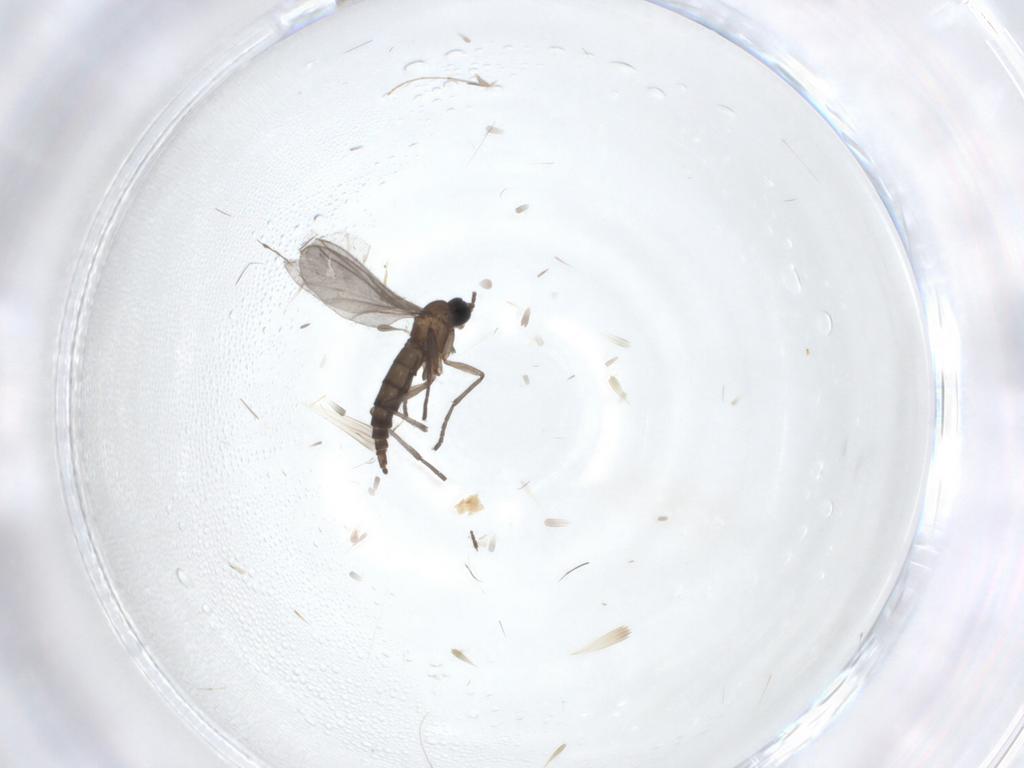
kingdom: Animalia
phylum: Arthropoda
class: Insecta
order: Diptera
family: Chironomidae
